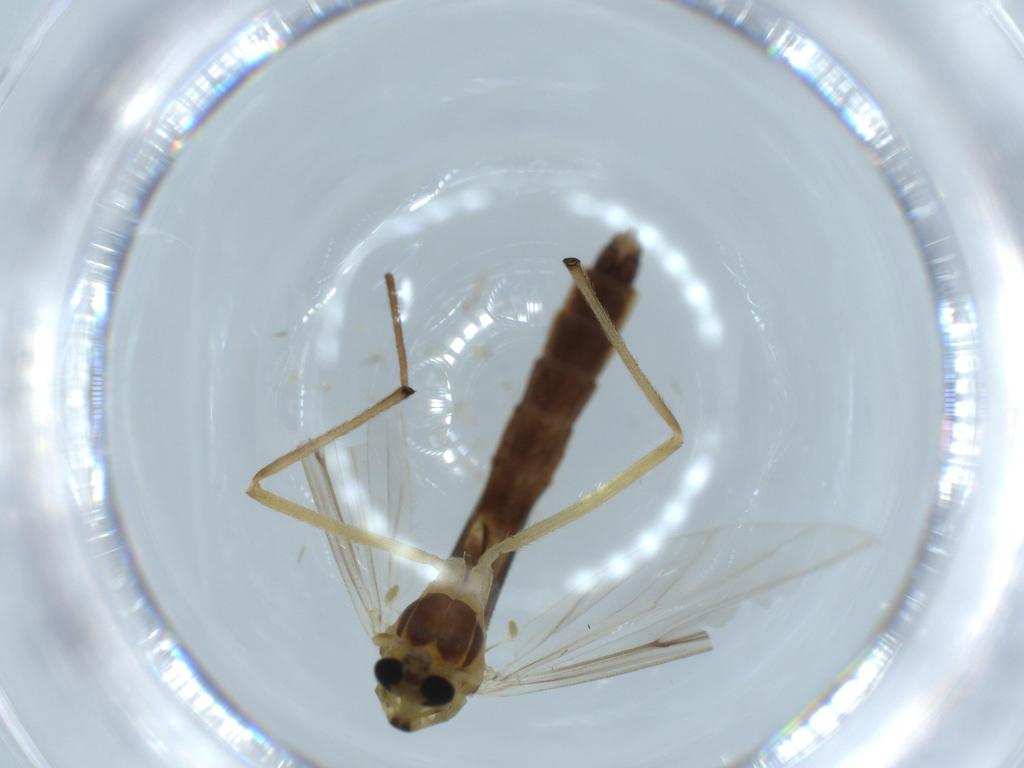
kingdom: Animalia
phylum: Arthropoda
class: Insecta
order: Diptera
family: Chironomidae
